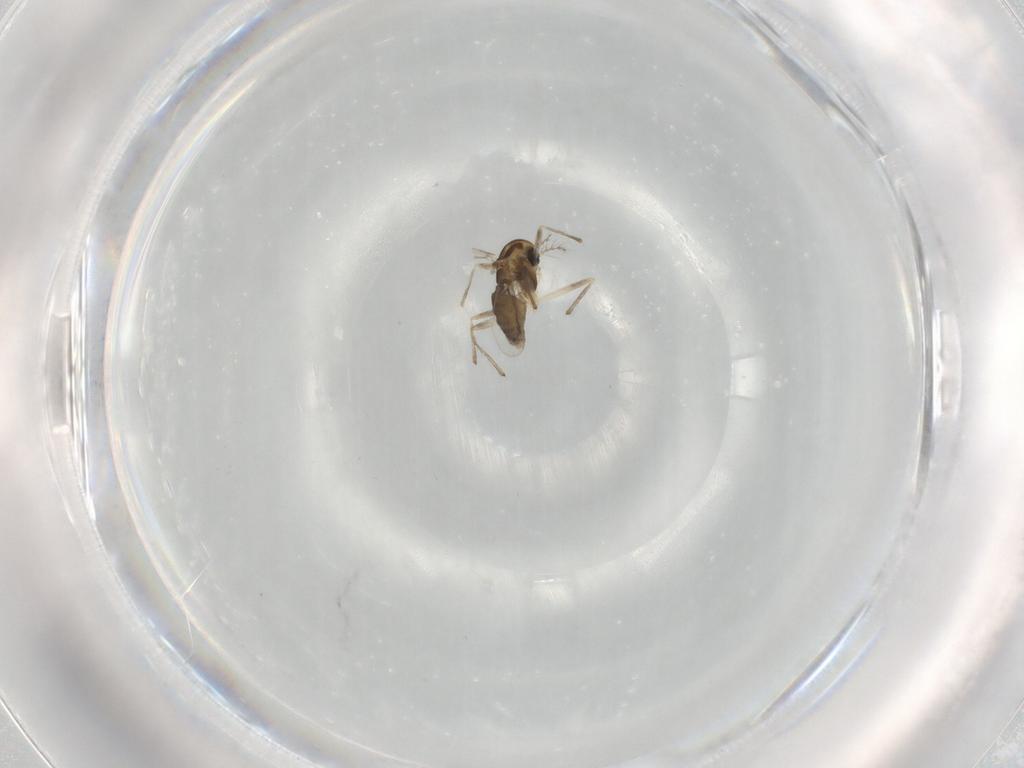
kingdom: Animalia
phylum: Arthropoda
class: Insecta
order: Diptera
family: Chironomidae
